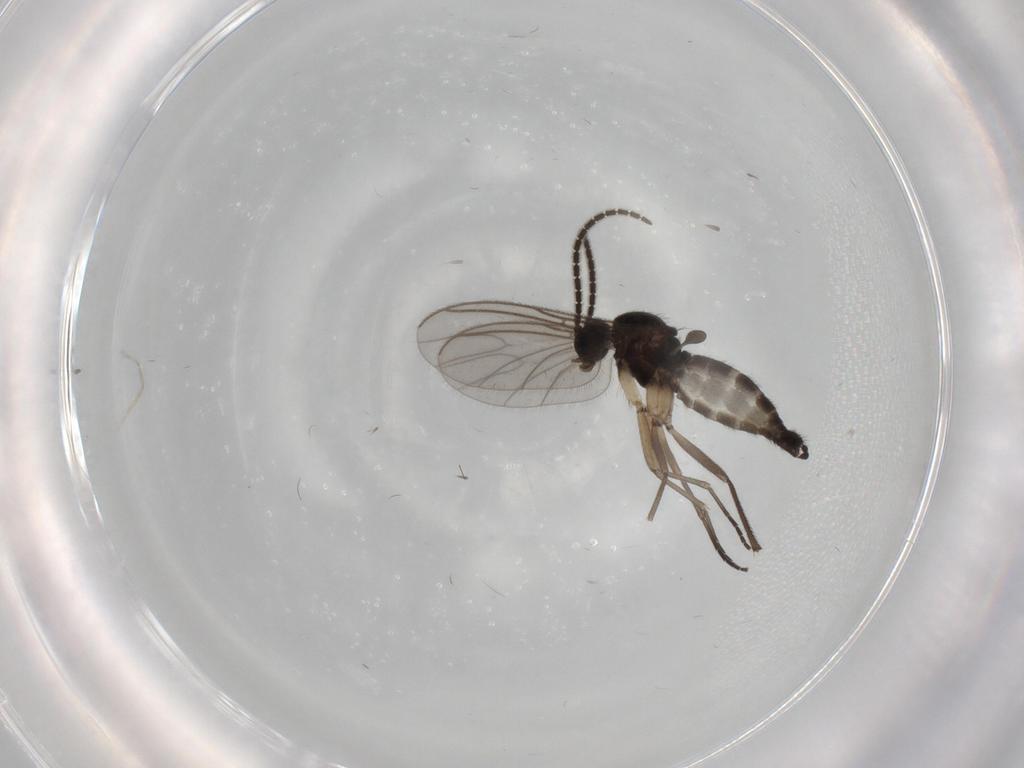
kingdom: Animalia
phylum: Arthropoda
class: Insecta
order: Diptera
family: Sciaridae
